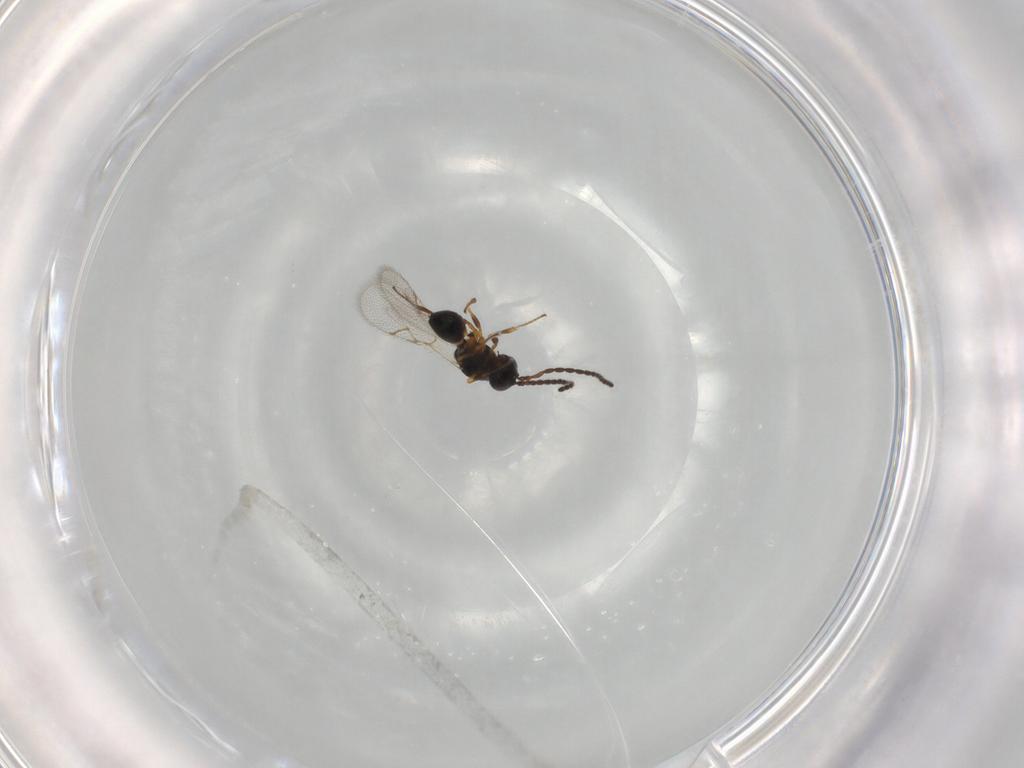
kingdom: Animalia
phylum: Arthropoda
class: Insecta
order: Hymenoptera
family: Figitidae
